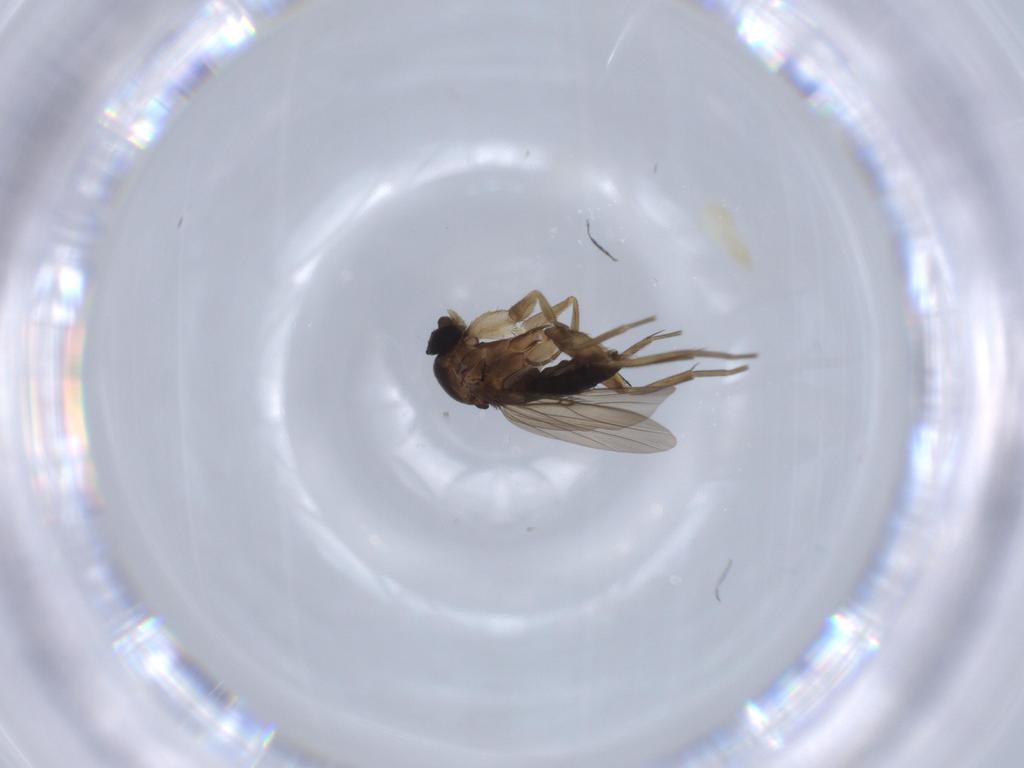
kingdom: Animalia
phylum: Arthropoda
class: Insecta
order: Diptera
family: Phoridae
